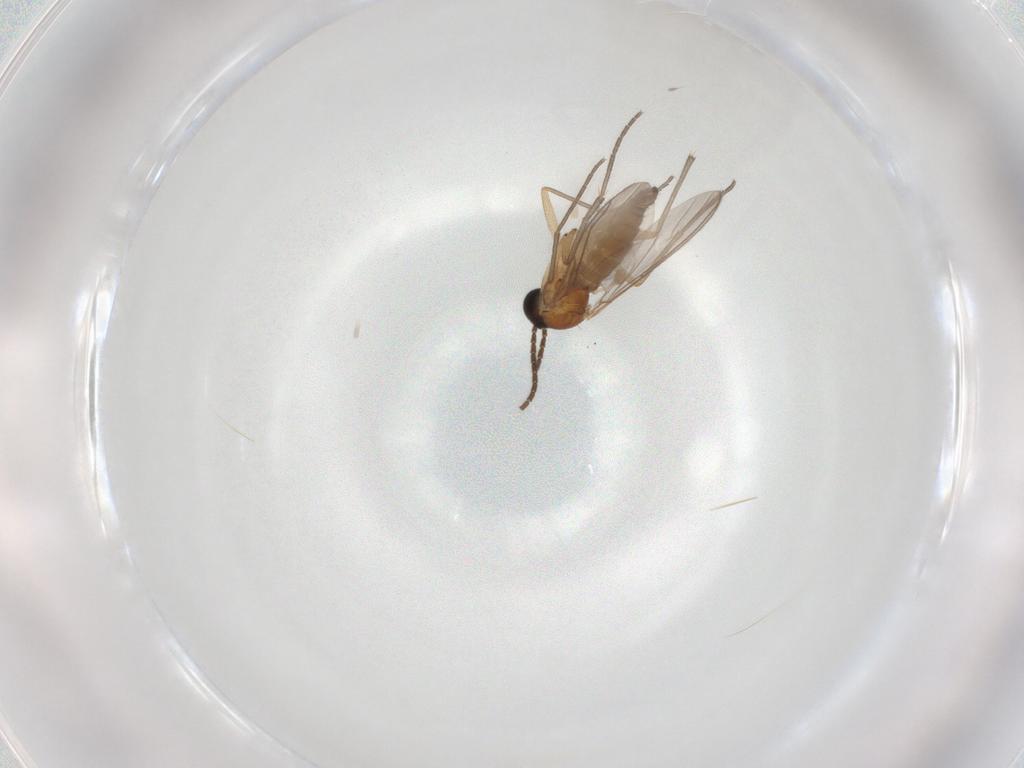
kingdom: Animalia
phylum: Arthropoda
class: Insecta
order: Diptera
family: Sciaridae
